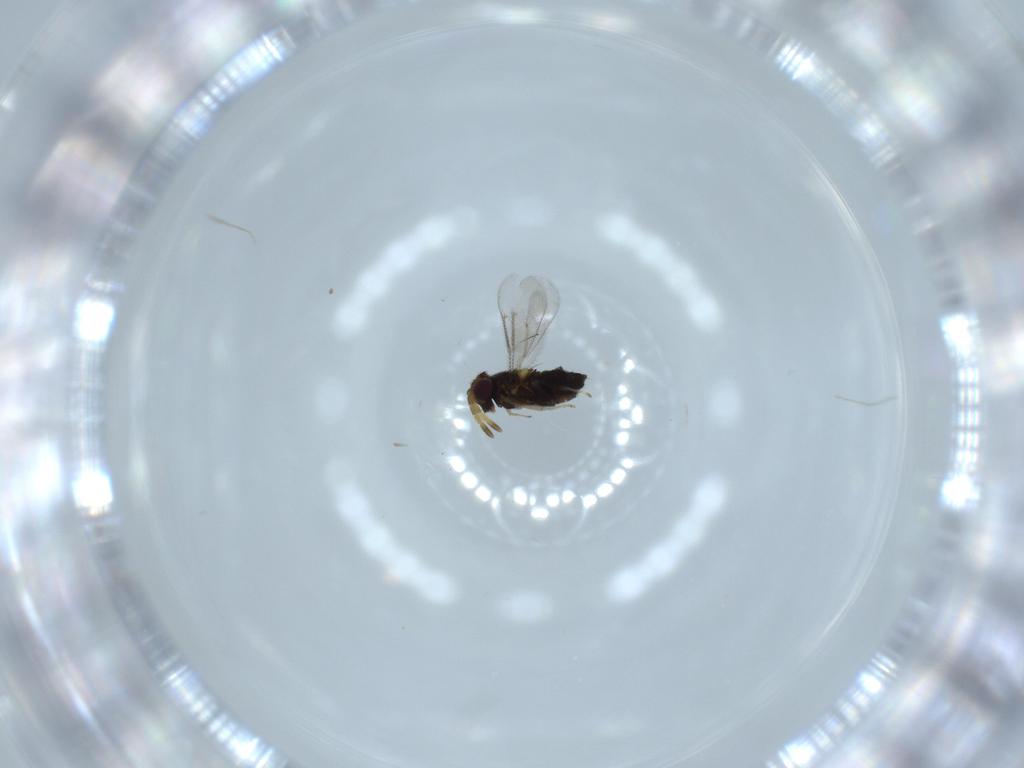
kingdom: Animalia
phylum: Arthropoda
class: Insecta
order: Hymenoptera
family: Aphelinidae
